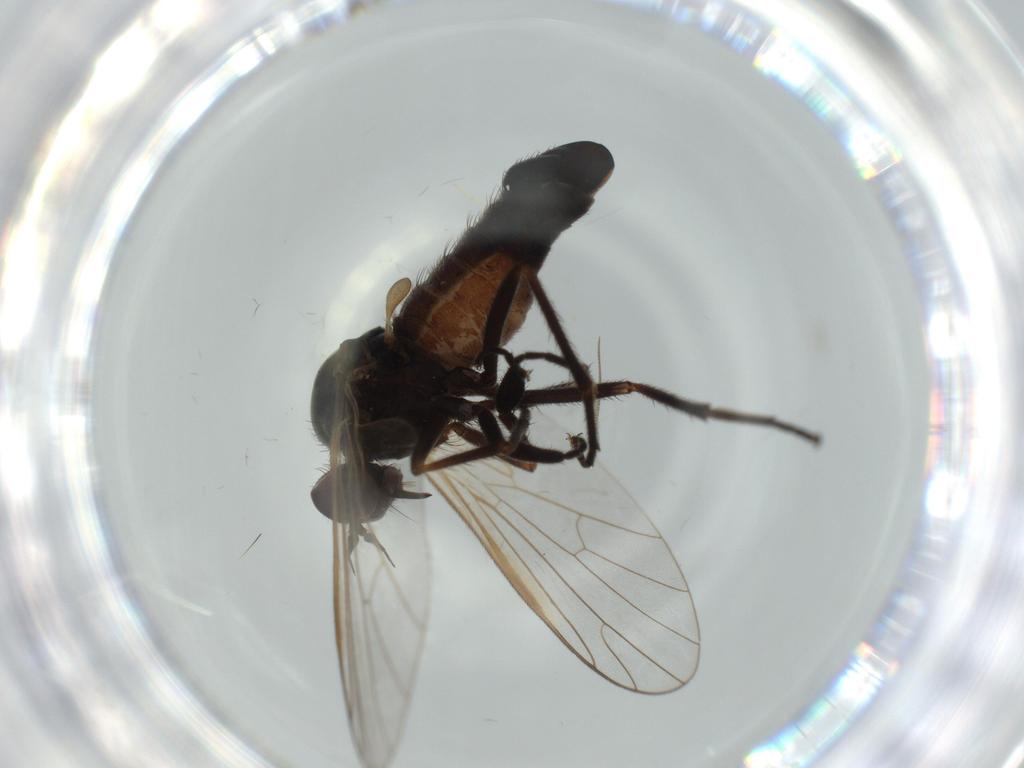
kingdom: Animalia
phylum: Arthropoda
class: Insecta
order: Diptera
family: Empididae
